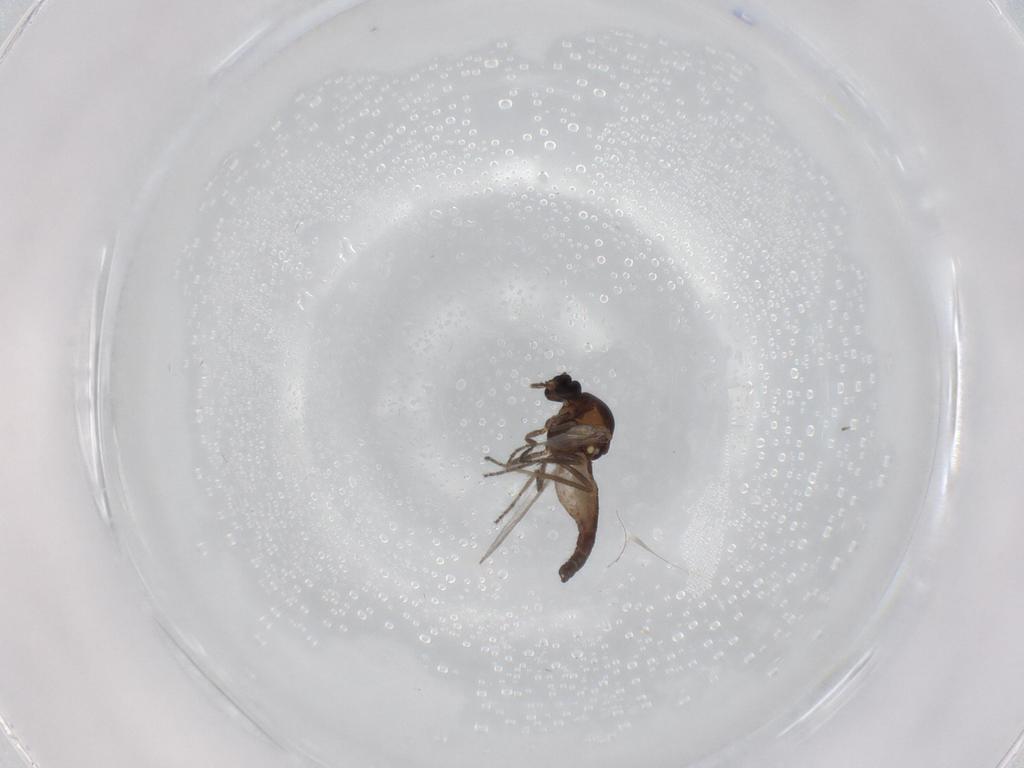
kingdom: Animalia
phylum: Arthropoda
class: Insecta
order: Diptera
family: Ceratopogonidae
